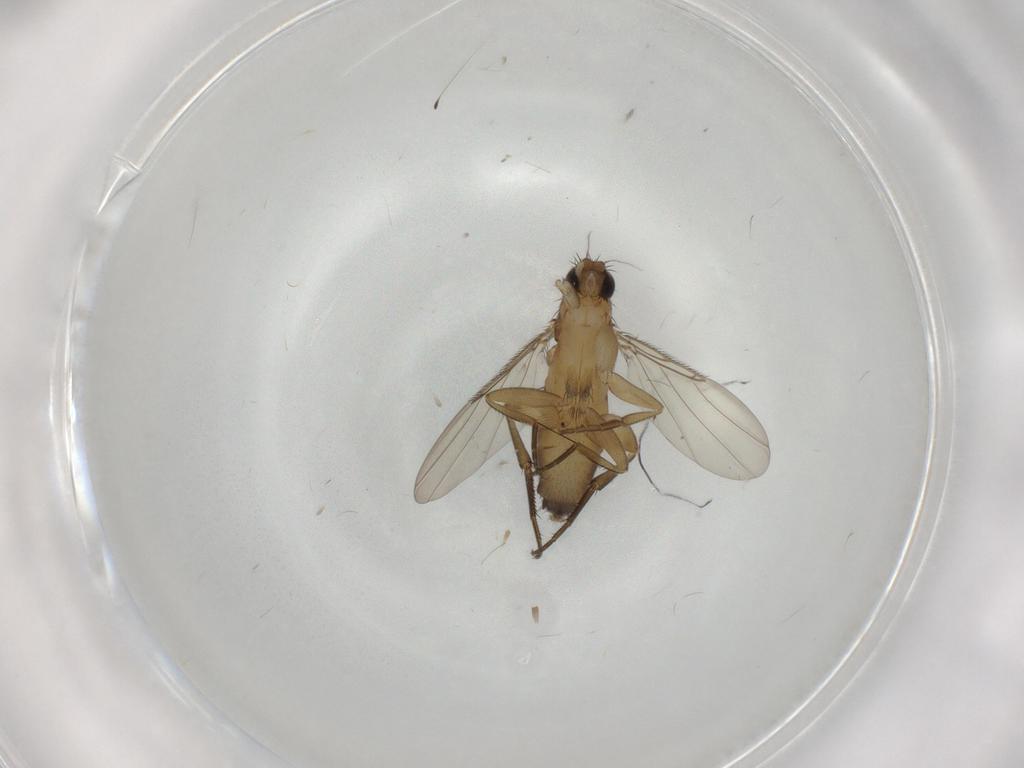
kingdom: Animalia
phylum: Arthropoda
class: Insecta
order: Diptera
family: Phoridae
